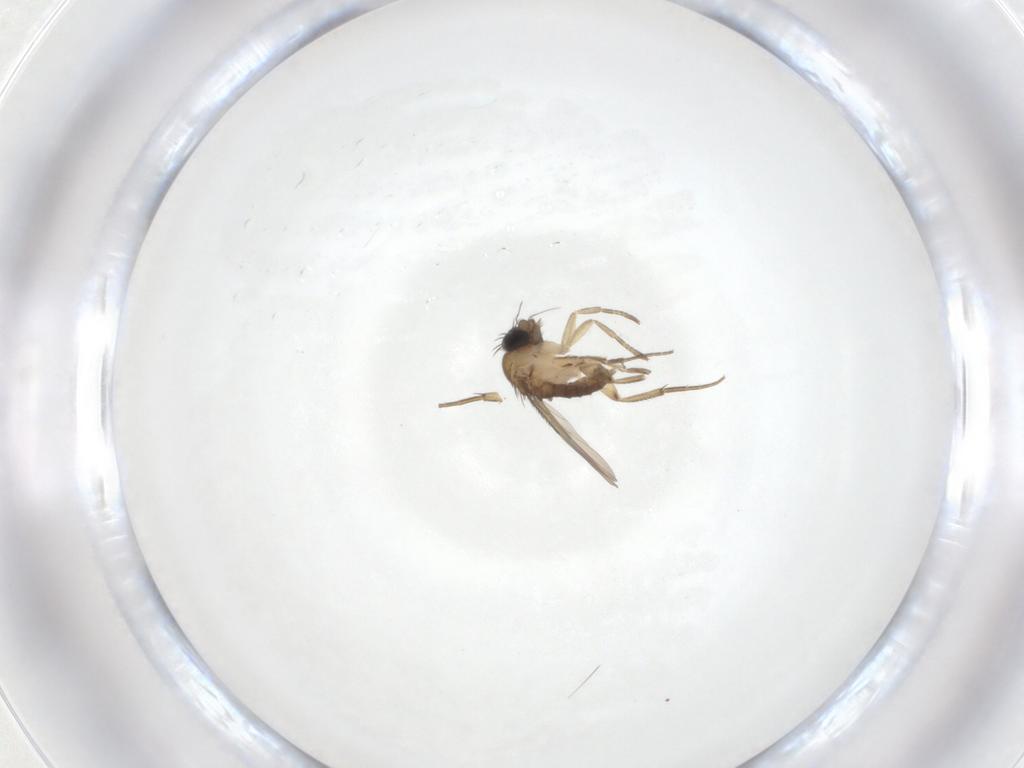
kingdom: Animalia
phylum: Arthropoda
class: Insecta
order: Diptera
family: Phoridae
